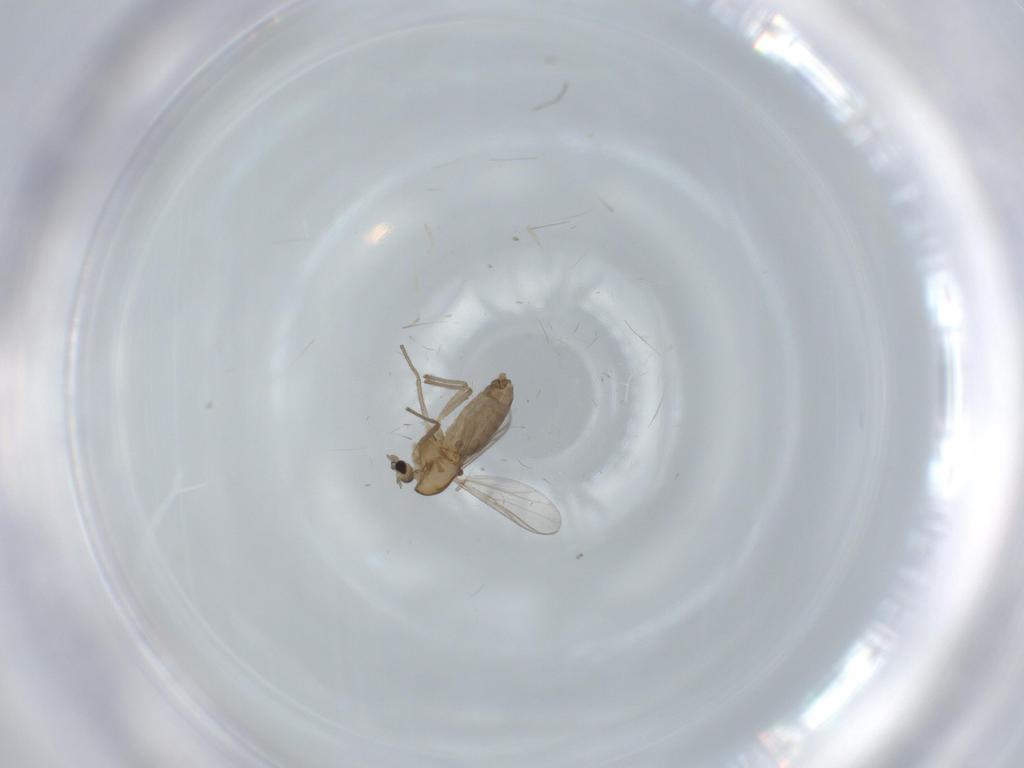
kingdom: Animalia
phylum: Arthropoda
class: Insecta
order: Diptera
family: Chironomidae
